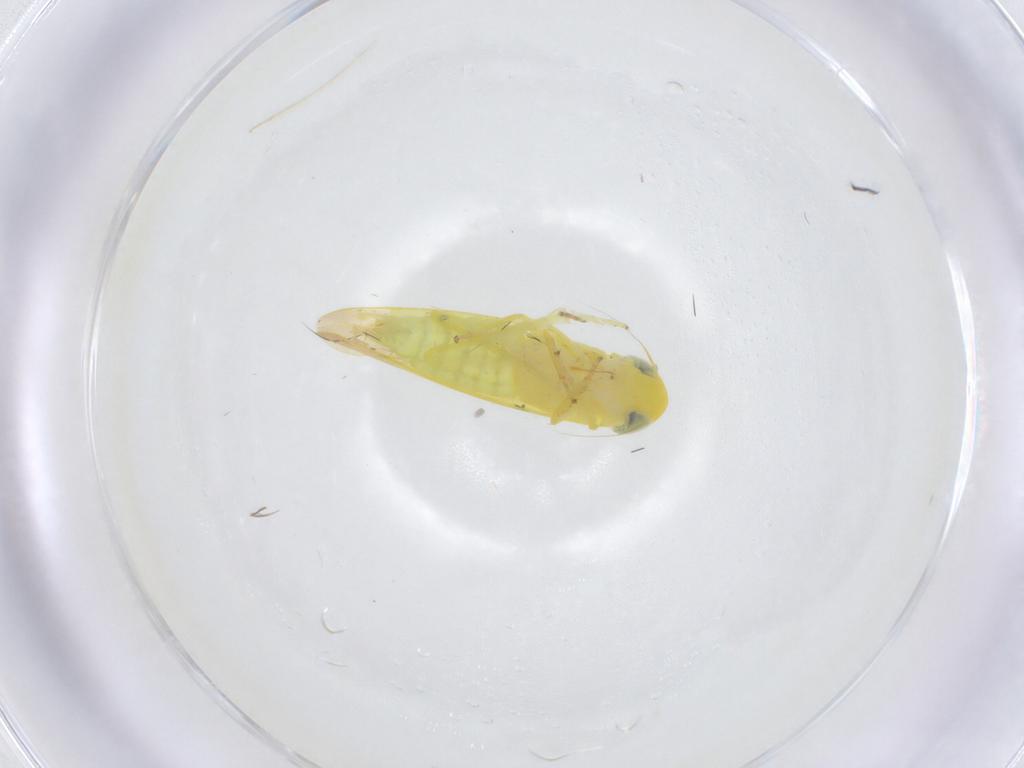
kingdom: Animalia
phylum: Arthropoda
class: Insecta
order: Hemiptera
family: Cicadellidae
